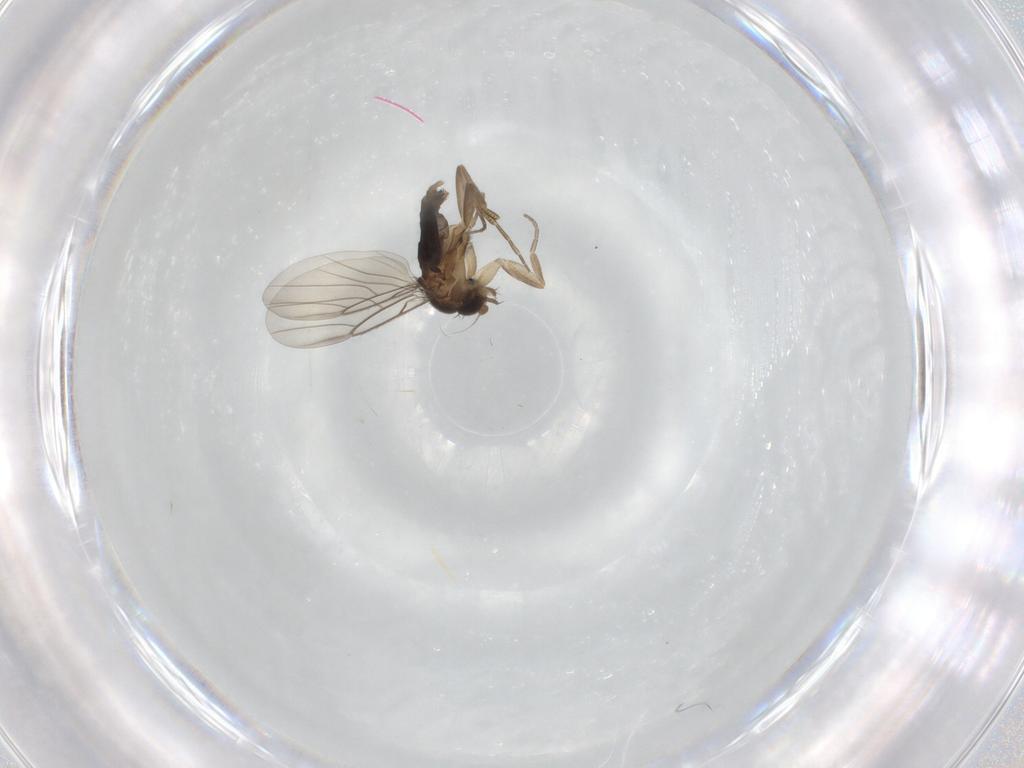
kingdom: Animalia
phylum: Arthropoda
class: Insecta
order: Diptera
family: Phoridae
